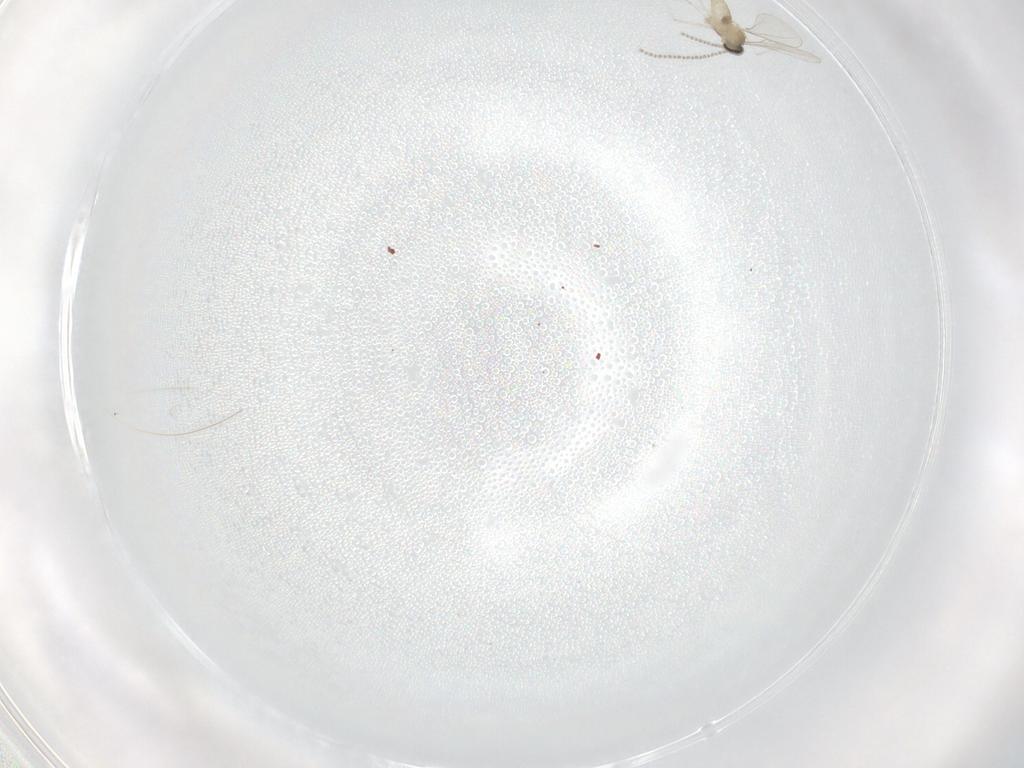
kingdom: Animalia
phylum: Arthropoda
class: Insecta
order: Diptera
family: Cecidomyiidae
